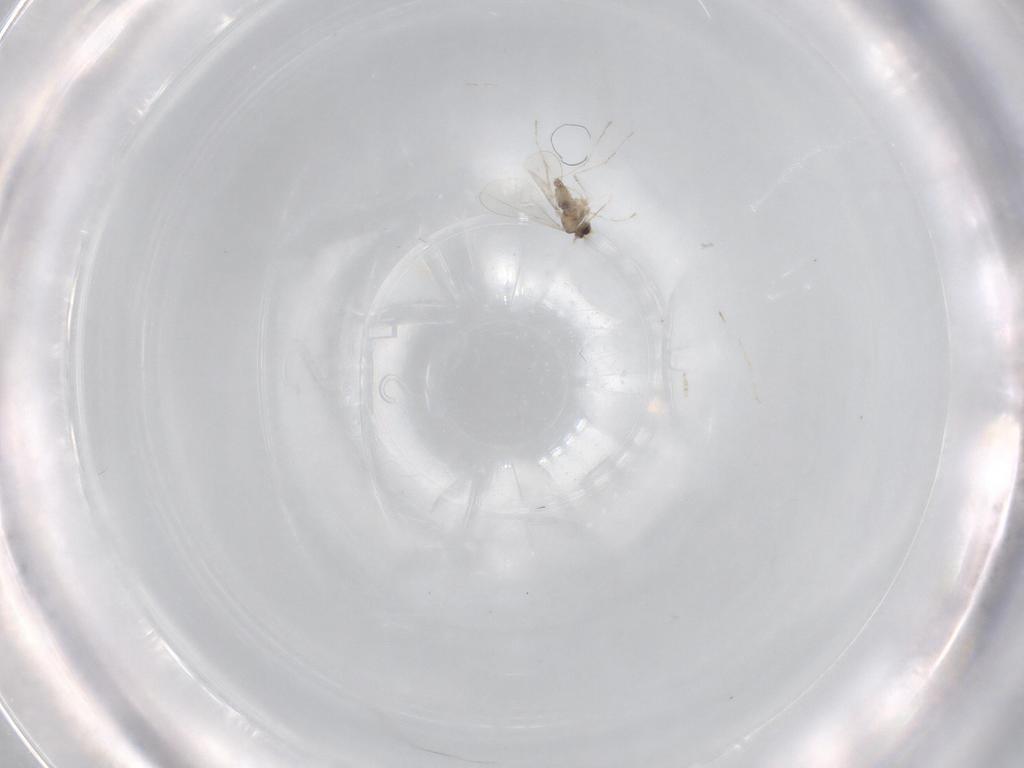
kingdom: Animalia
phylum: Arthropoda
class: Insecta
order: Diptera
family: Cecidomyiidae
